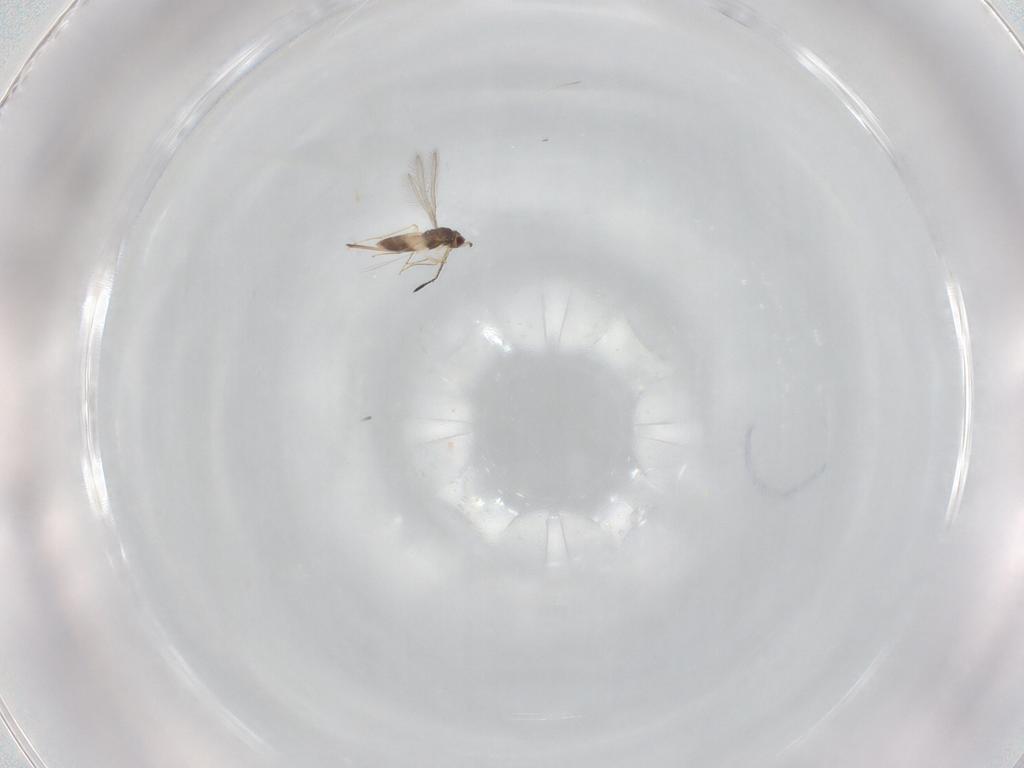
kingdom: Animalia
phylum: Arthropoda
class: Insecta
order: Hymenoptera
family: Mymaridae
